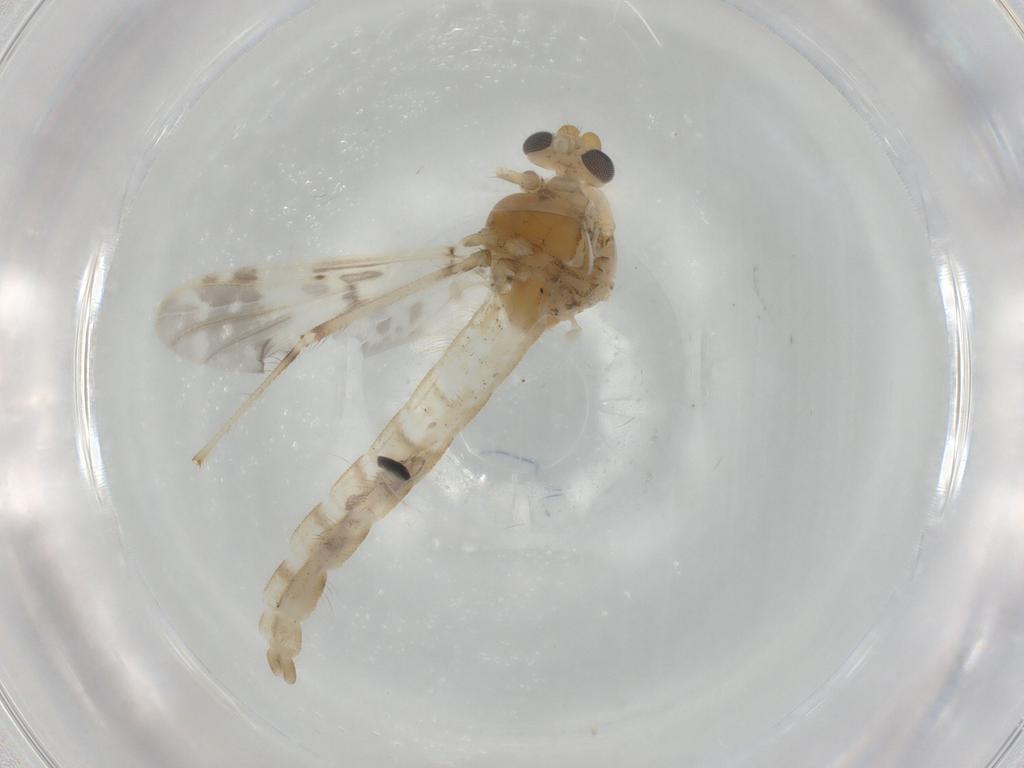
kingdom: Animalia
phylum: Arthropoda
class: Insecta
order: Diptera
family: Chironomidae
